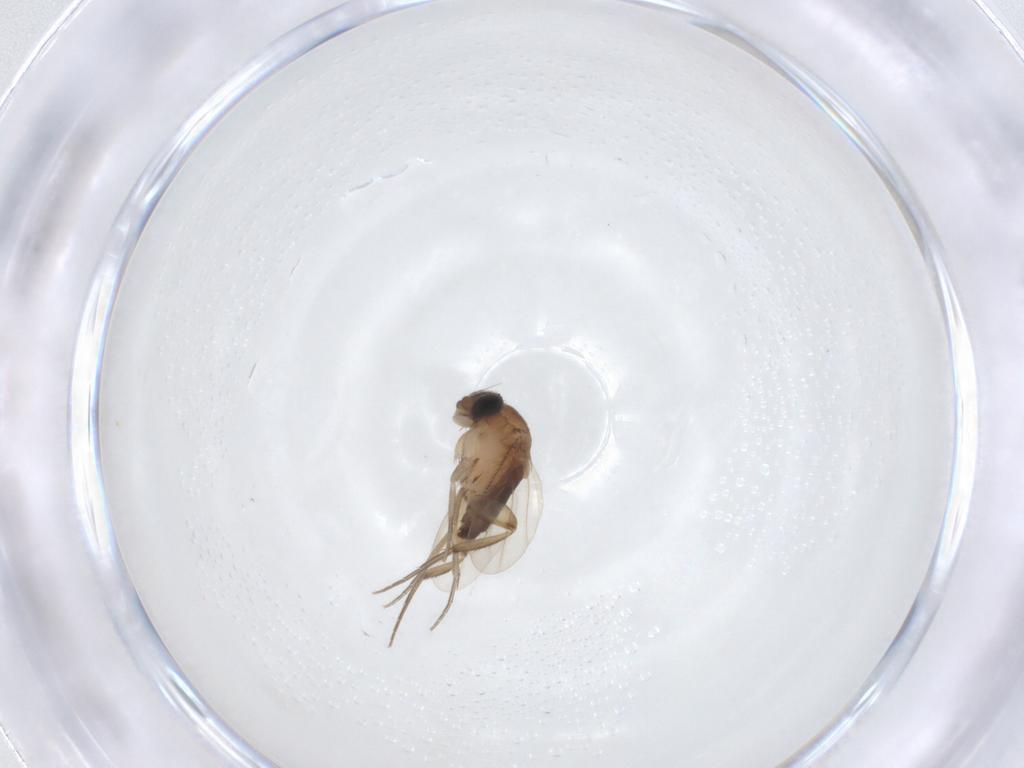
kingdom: Animalia
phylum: Arthropoda
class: Insecta
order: Diptera
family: Phoridae
